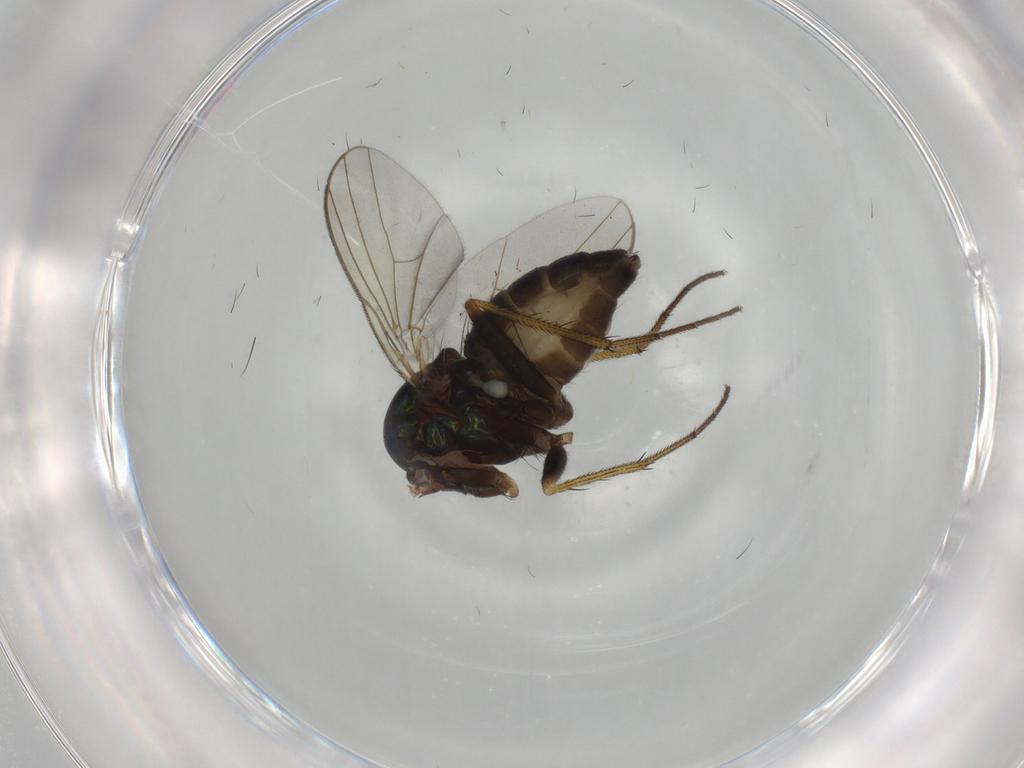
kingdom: Animalia
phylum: Arthropoda
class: Insecta
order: Diptera
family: Dolichopodidae
